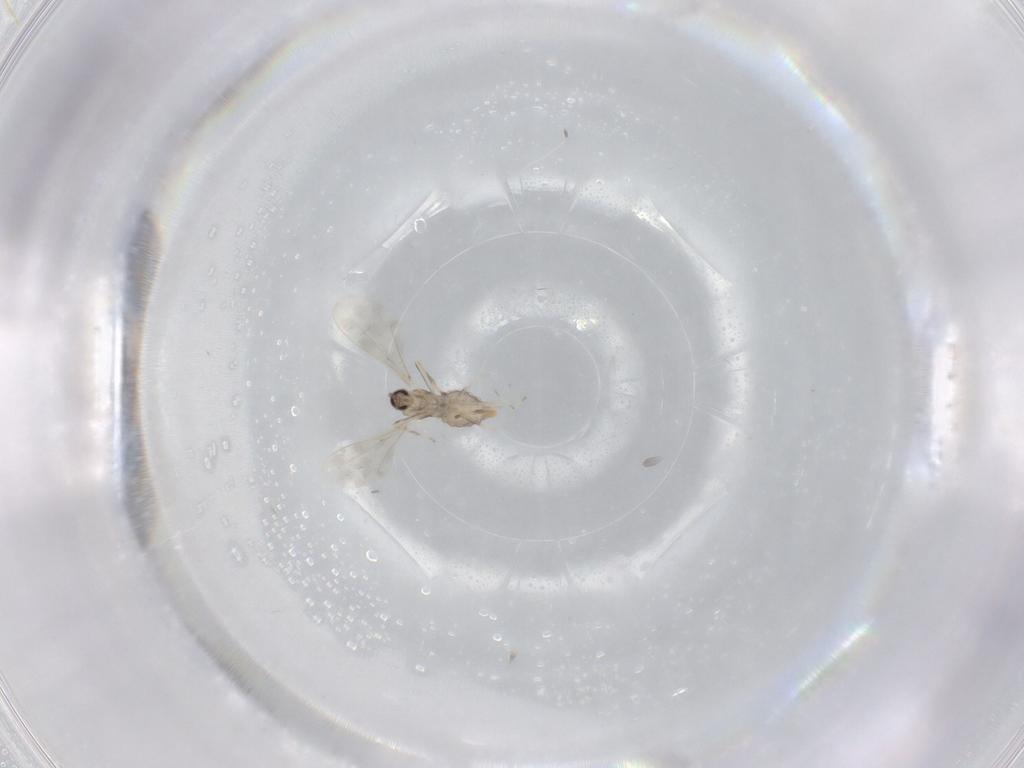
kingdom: Animalia
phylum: Arthropoda
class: Insecta
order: Diptera
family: Cecidomyiidae
